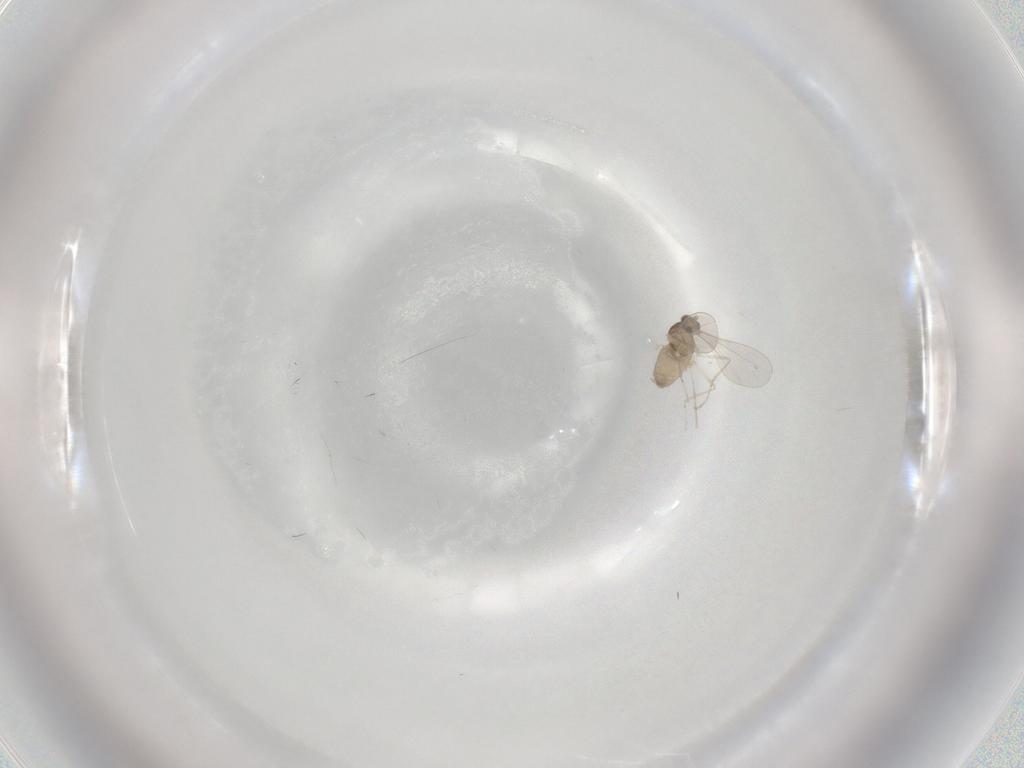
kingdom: Animalia
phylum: Arthropoda
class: Insecta
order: Diptera
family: Cecidomyiidae
